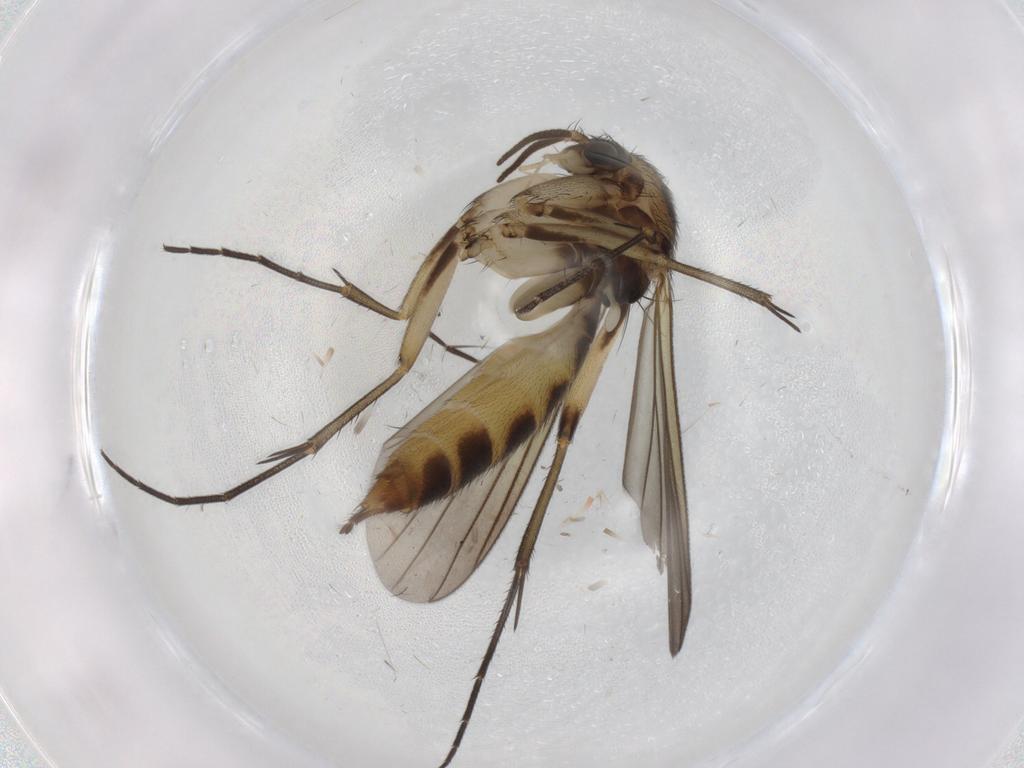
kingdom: Animalia
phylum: Arthropoda
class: Insecta
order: Diptera
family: Mycetophilidae
